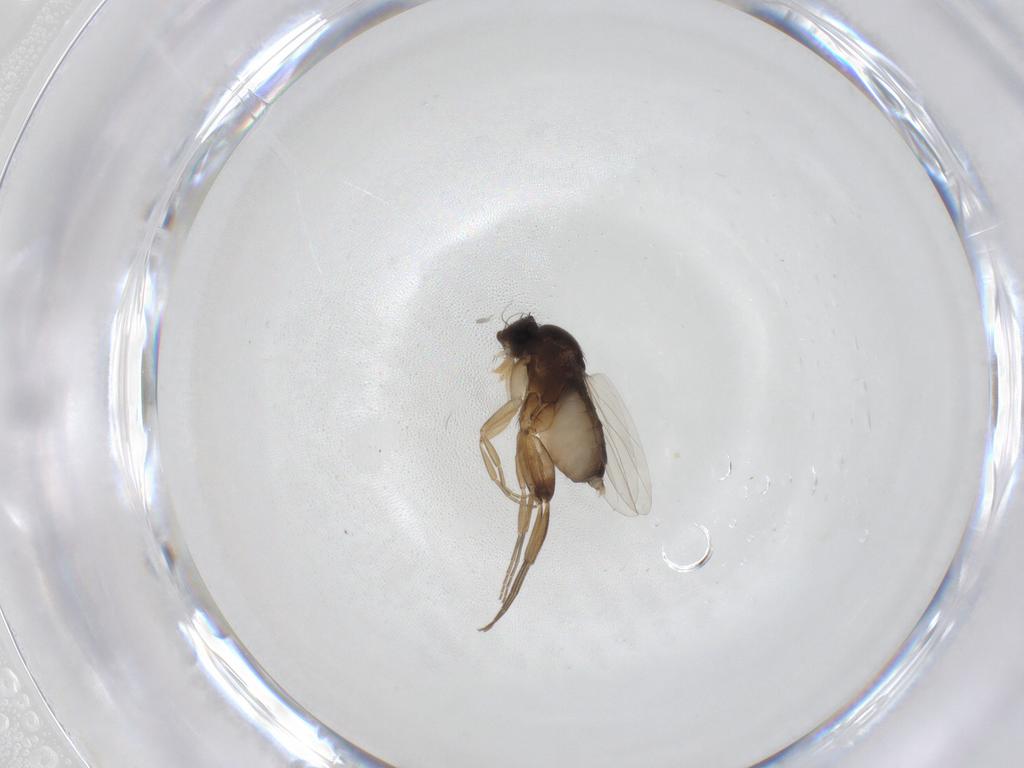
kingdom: Animalia
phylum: Arthropoda
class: Insecta
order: Diptera
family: Phoridae
